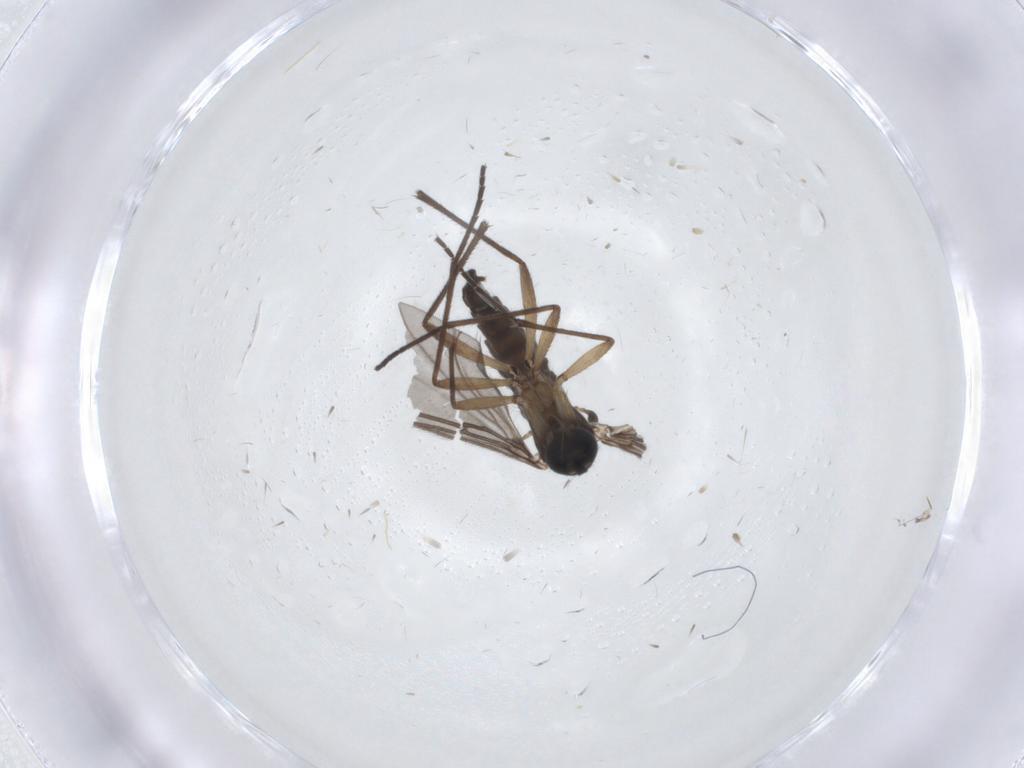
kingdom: Animalia
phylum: Arthropoda
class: Insecta
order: Diptera
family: Sciaridae
